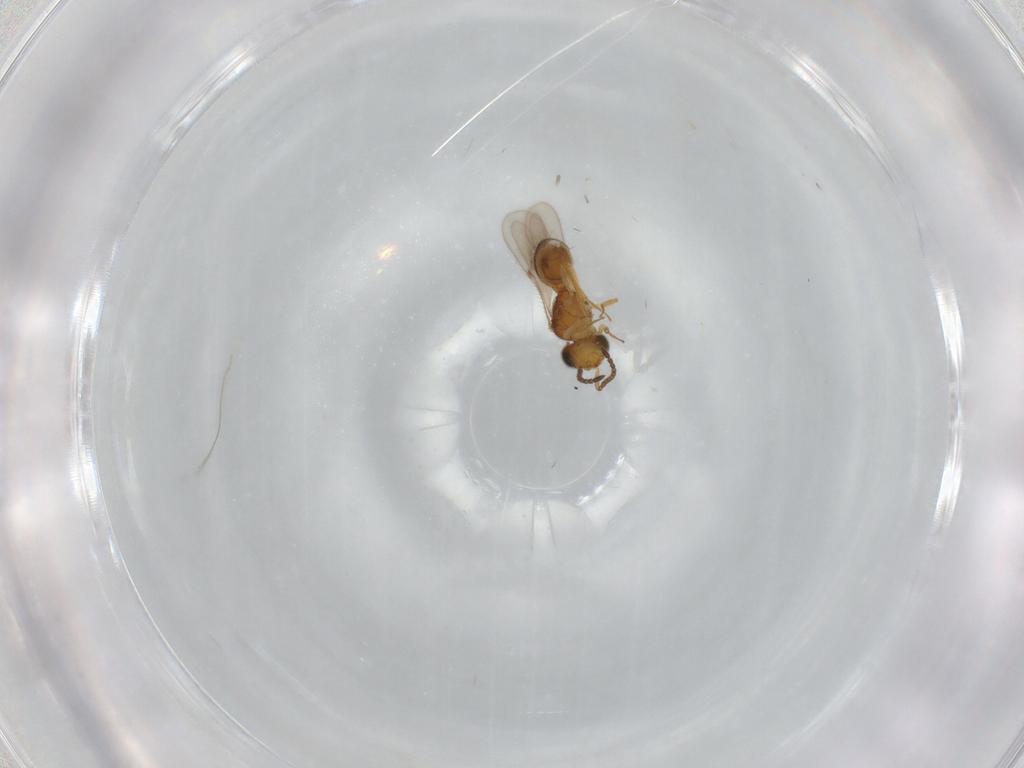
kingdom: Animalia
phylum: Arthropoda
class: Insecta
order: Hymenoptera
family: Scelionidae
